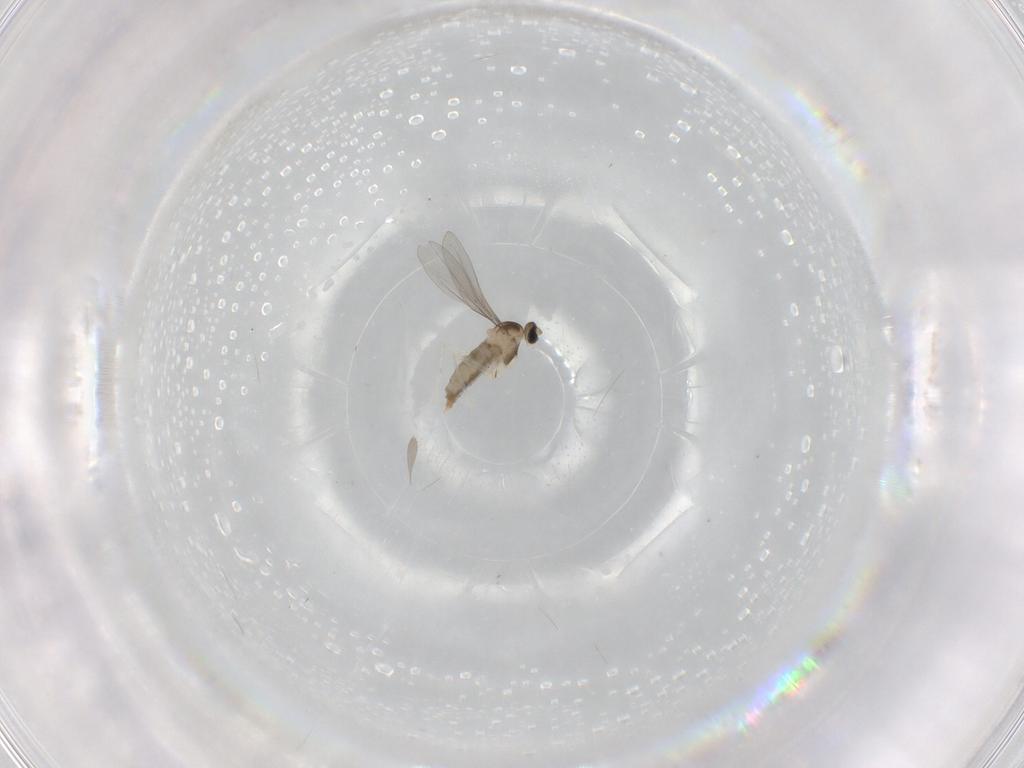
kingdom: Animalia
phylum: Arthropoda
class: Insecta
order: Diptera
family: Cecidomyiidae
